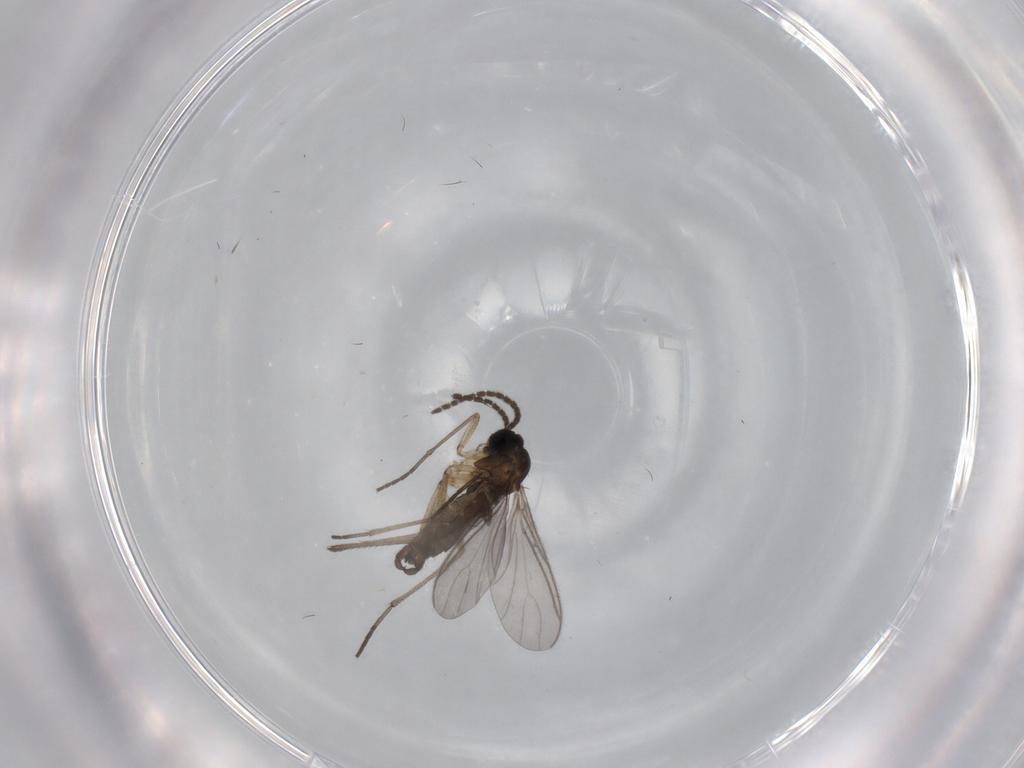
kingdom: Animalia
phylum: Arthropoda
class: Insecta
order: Diptera
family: Sciaridae
